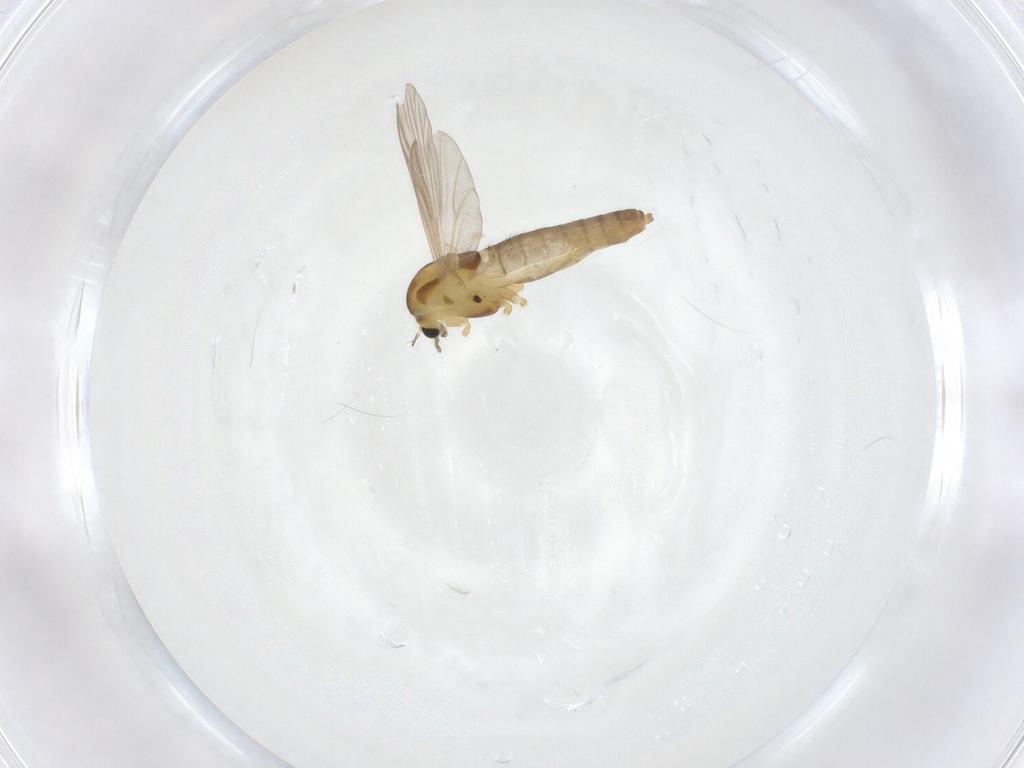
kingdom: Animalia
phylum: Arthropoda
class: Insecta
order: Diptera
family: Chironomidae
